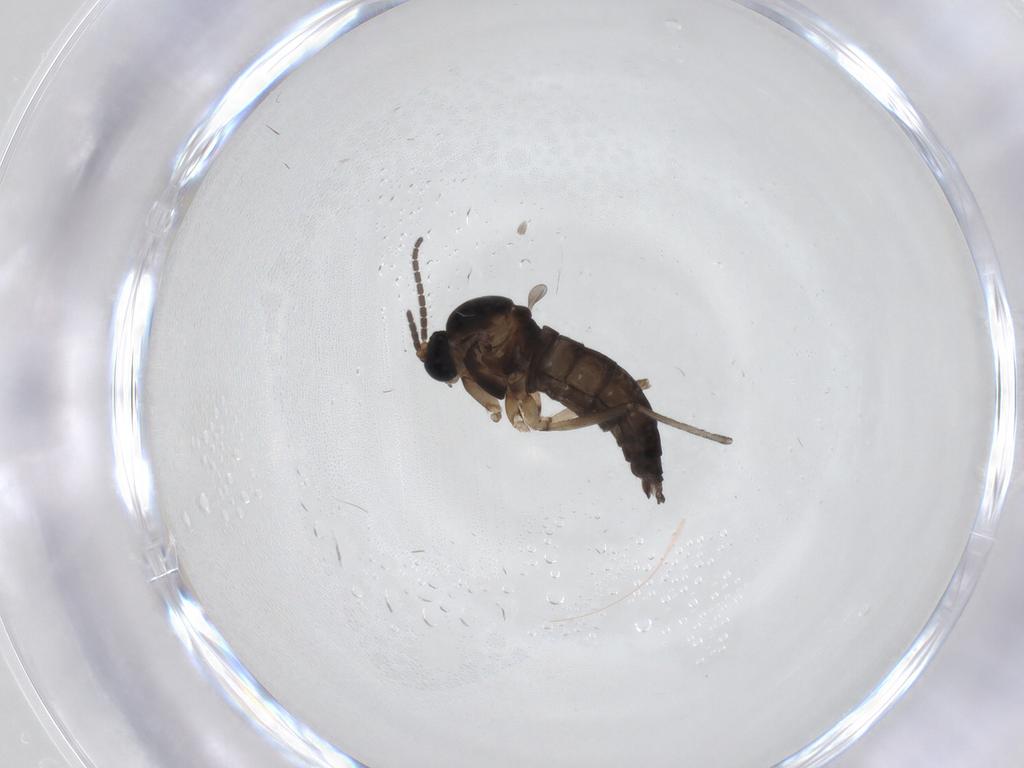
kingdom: Animalia
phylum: Arthropoda
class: Insecta
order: Diptera
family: Sciaridae
